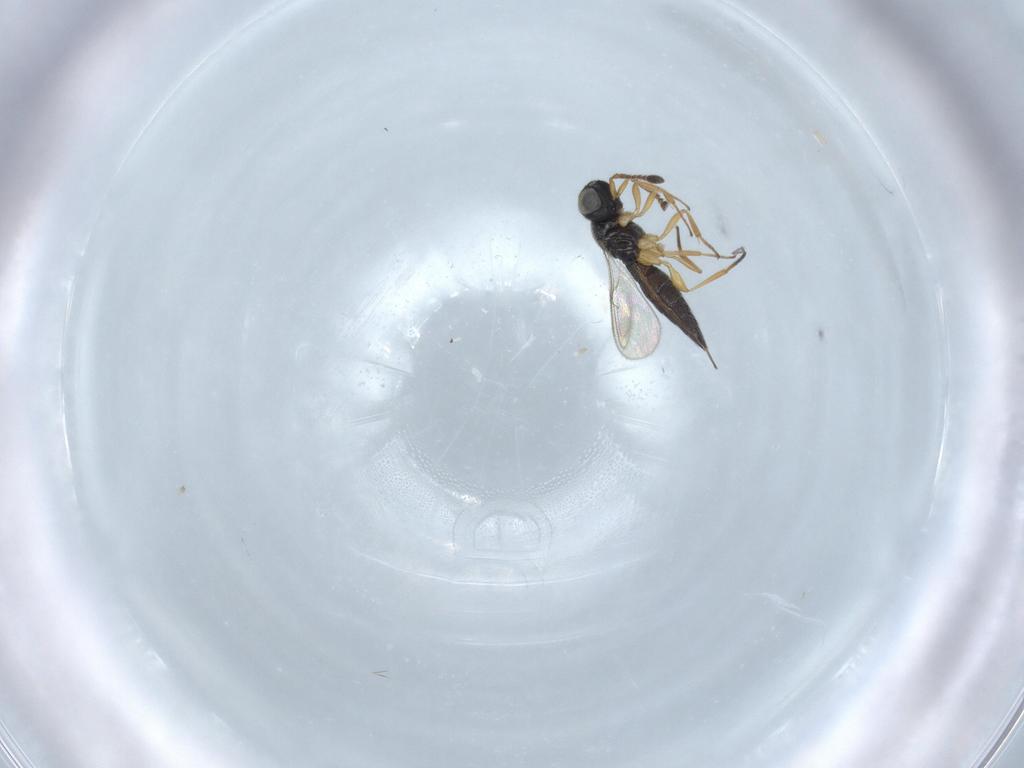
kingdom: Animalia
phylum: Arthropoda
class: Insecta
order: Hymenoptera
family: Scelionidae
